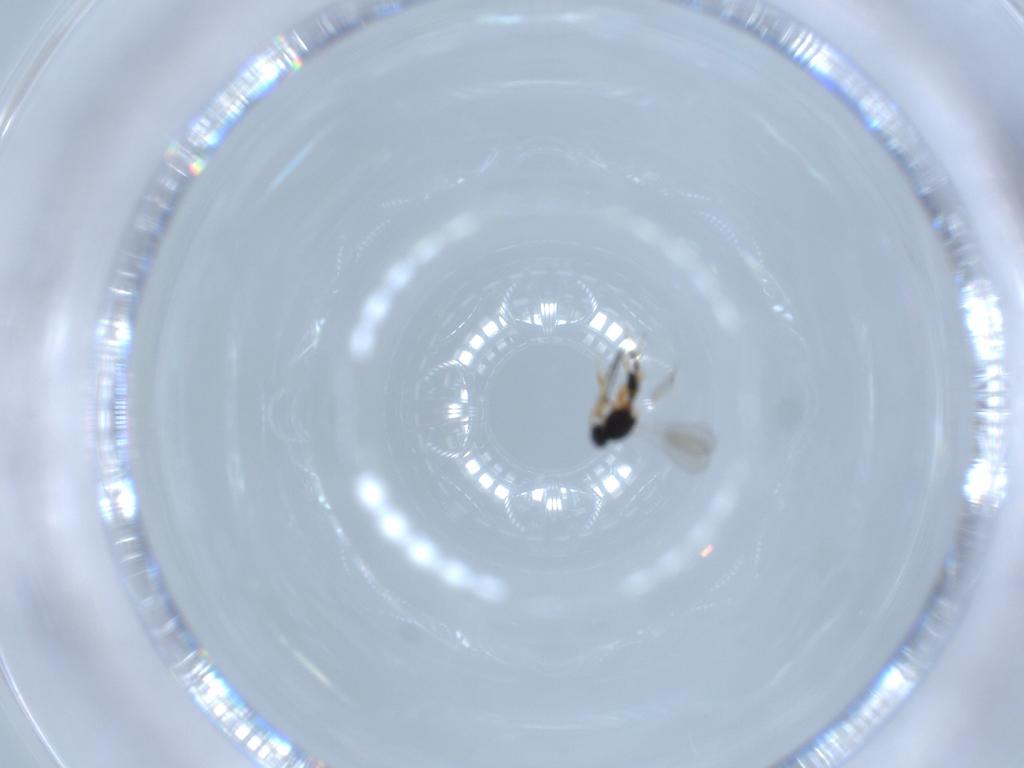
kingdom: Animalia
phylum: Arthropoda
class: Insecta
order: Hymenoptera
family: Platygastridae
